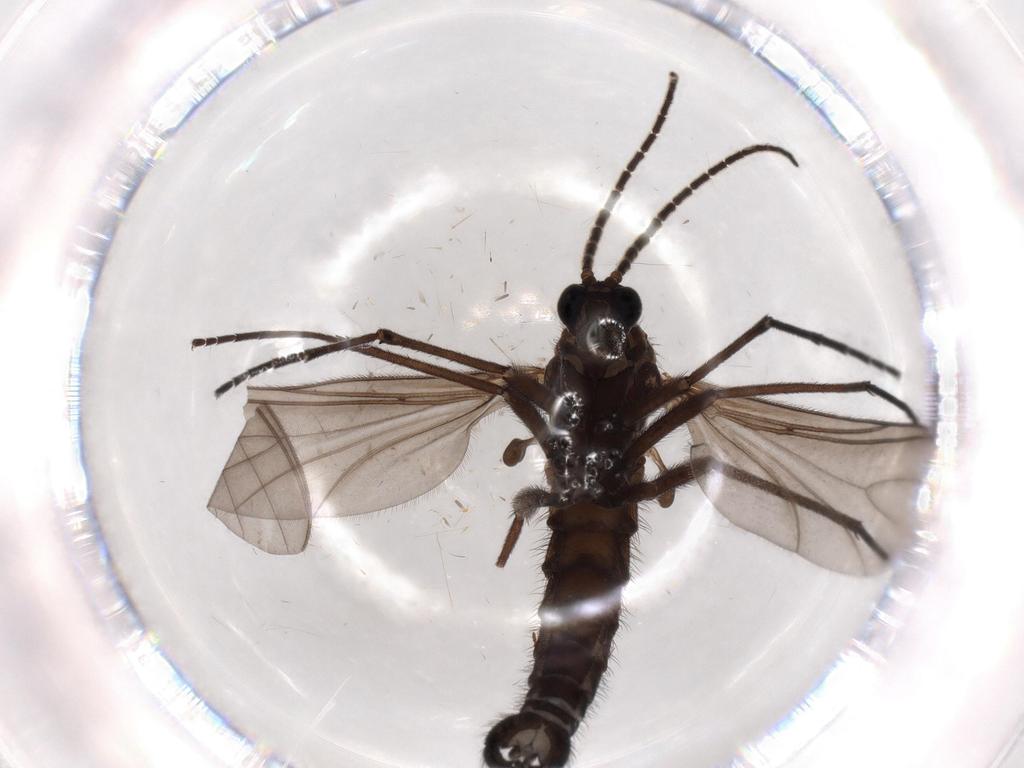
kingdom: Animalia
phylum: Arthropoda
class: Insecta
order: Diptera
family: Sciaridae
